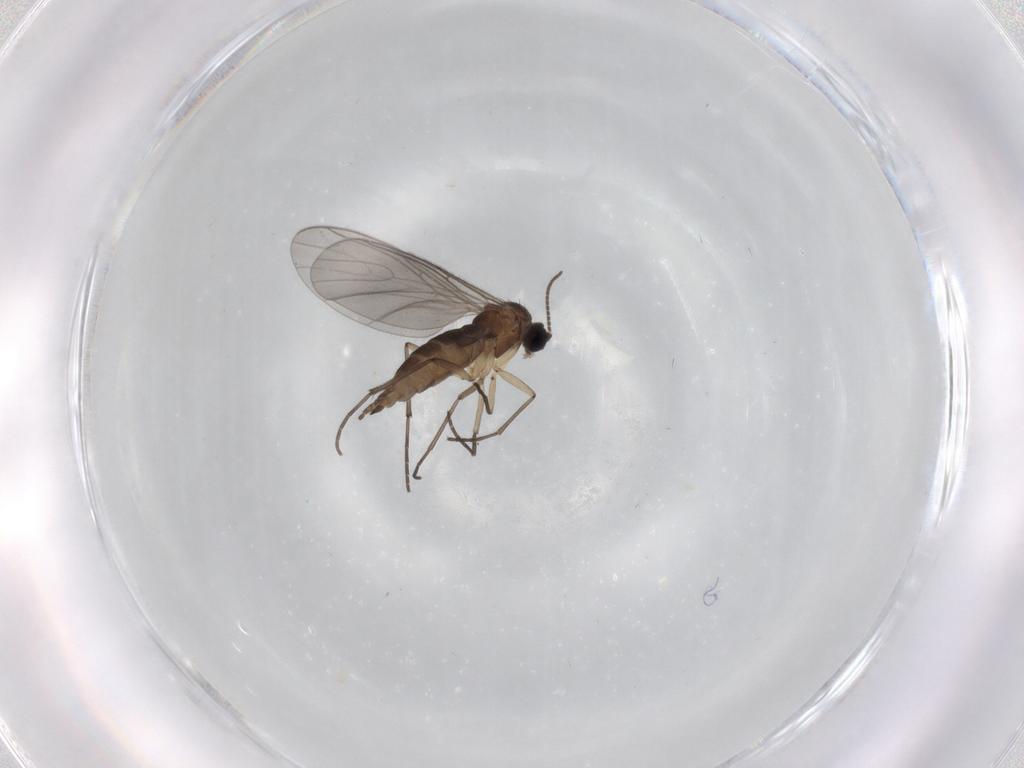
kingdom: Animalia
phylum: Arthropoda
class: Insecta
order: Diptera
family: Sciaridae
